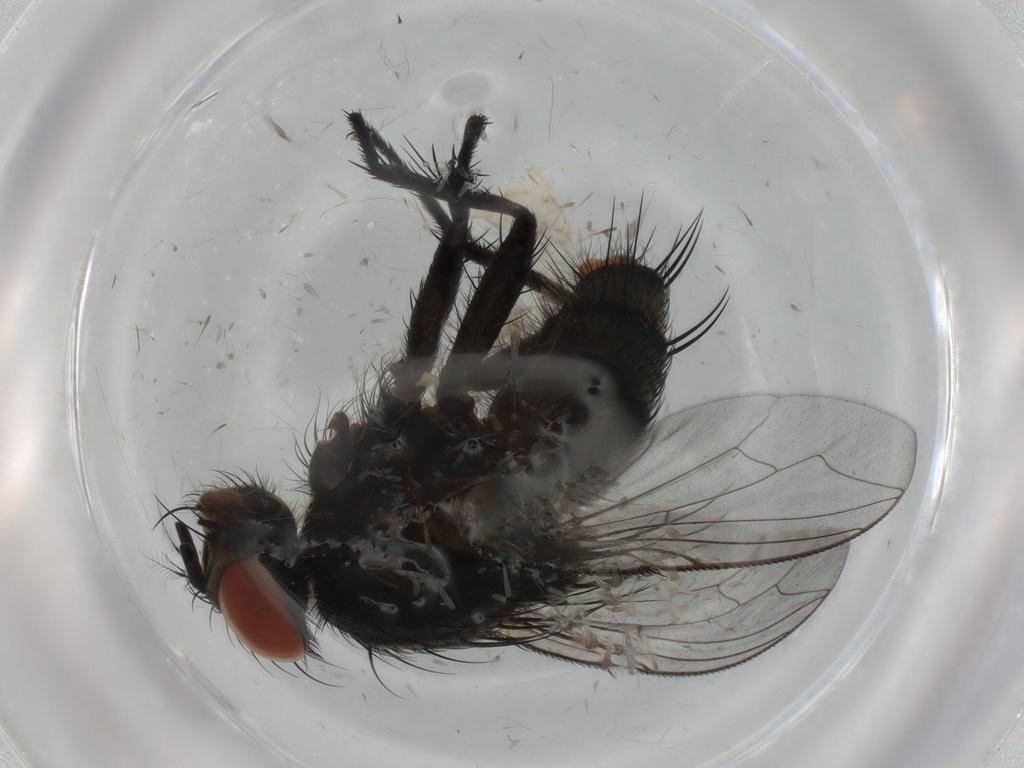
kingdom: Animalia
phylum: Arthropoda
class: Insecta
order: Diptera
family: Sarcophagidae
